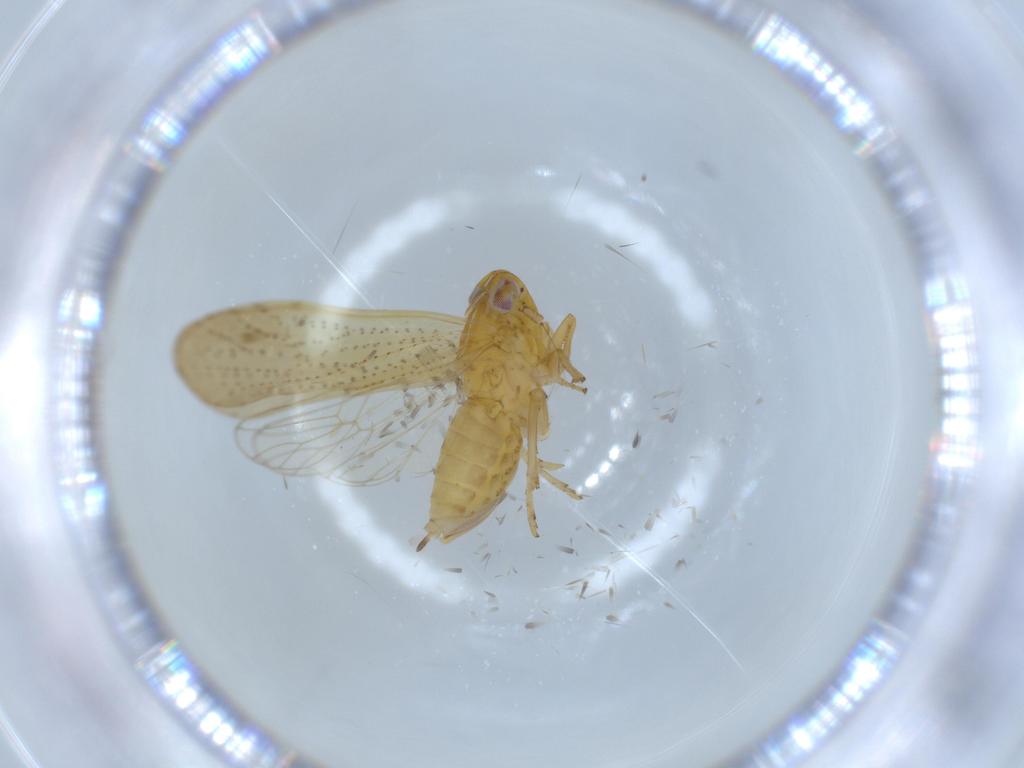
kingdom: Animalia
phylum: Arthropoda
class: Insecta
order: Hemiptera
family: Delphacidae
